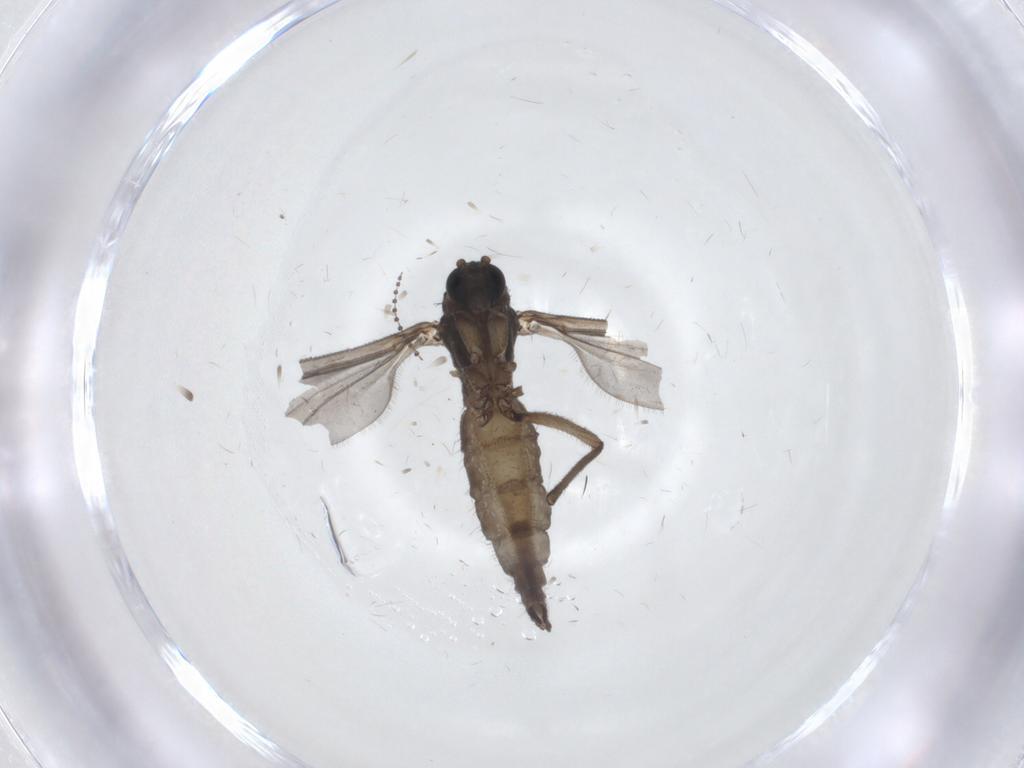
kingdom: Animalia
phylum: Arthropoda
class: Insecta
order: Diptera
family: Sciaridae
